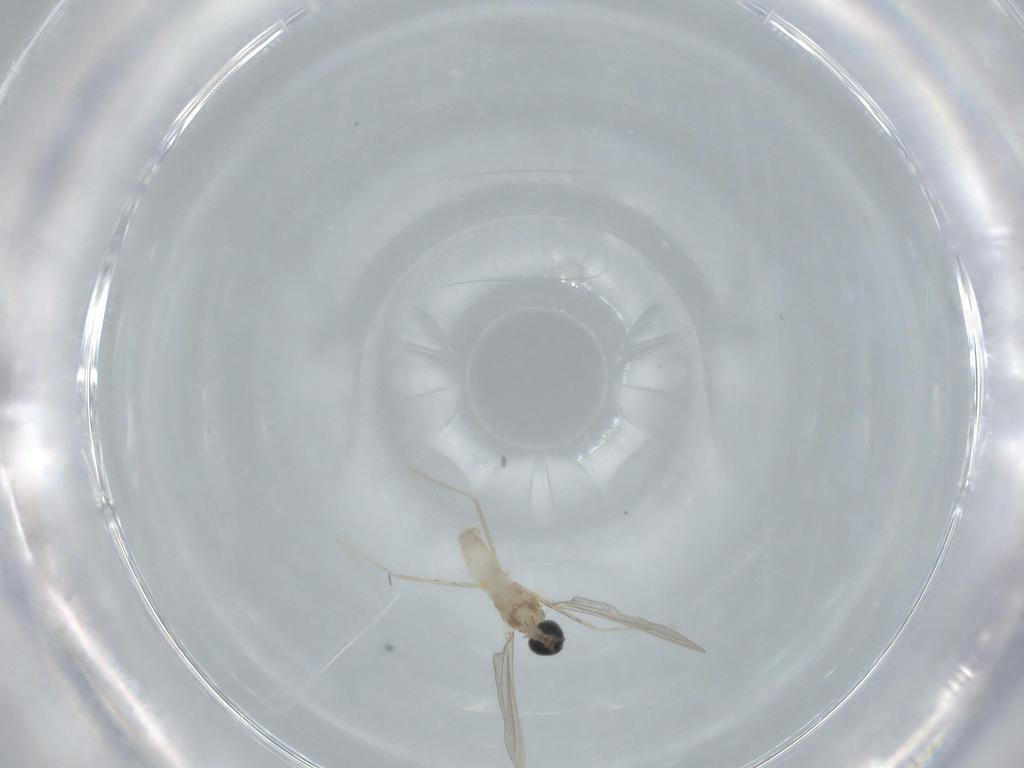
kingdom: Animalia
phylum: Arthropoda
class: Insecta
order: Diptera
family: Cecidomyiidae
